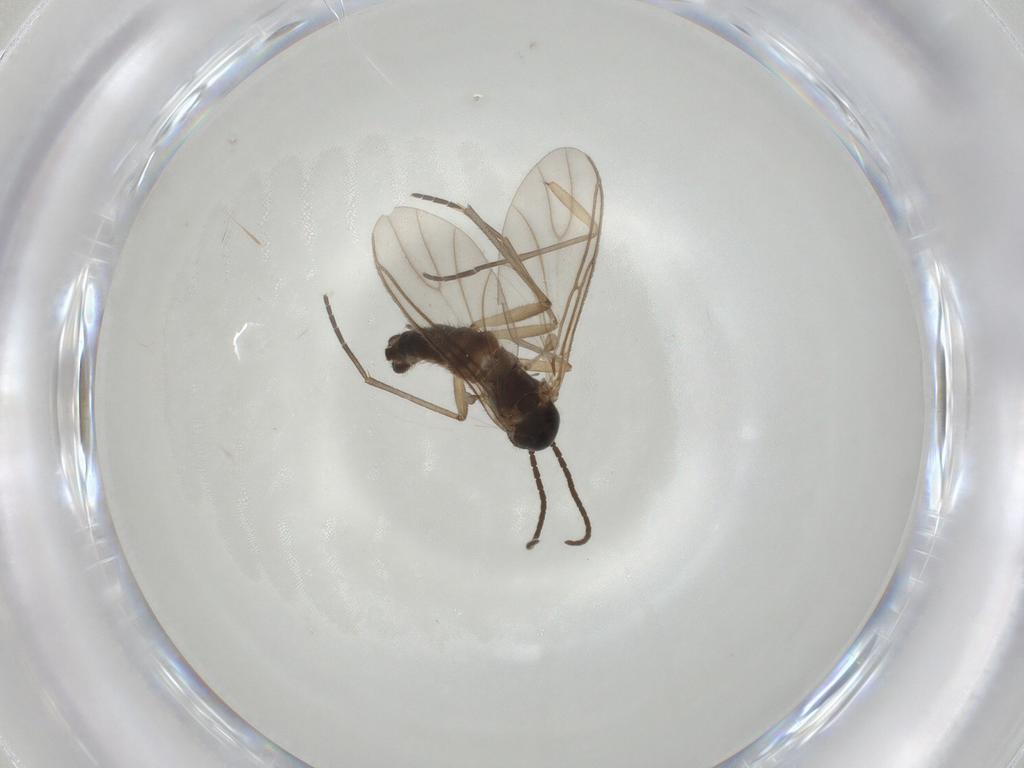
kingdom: Animalia
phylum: Arthropoda
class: Insecta
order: Diptera
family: Sciaridae
